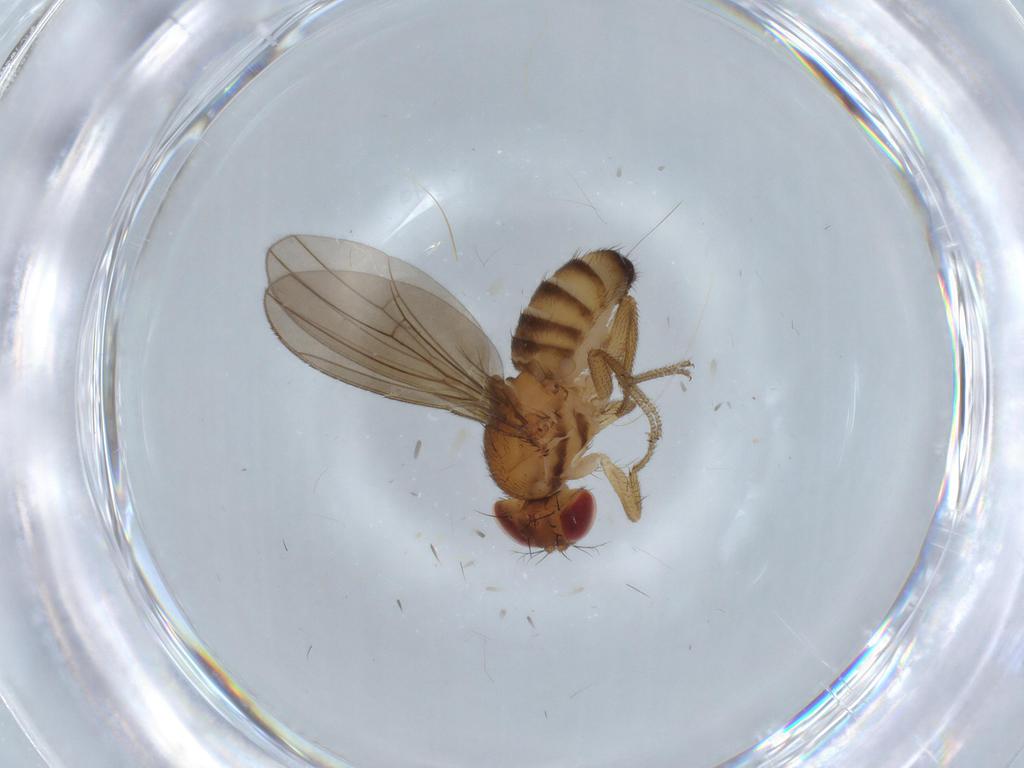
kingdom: Animalia
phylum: Arthropoda
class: Insecta
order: Diptera
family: Drosophilidae
